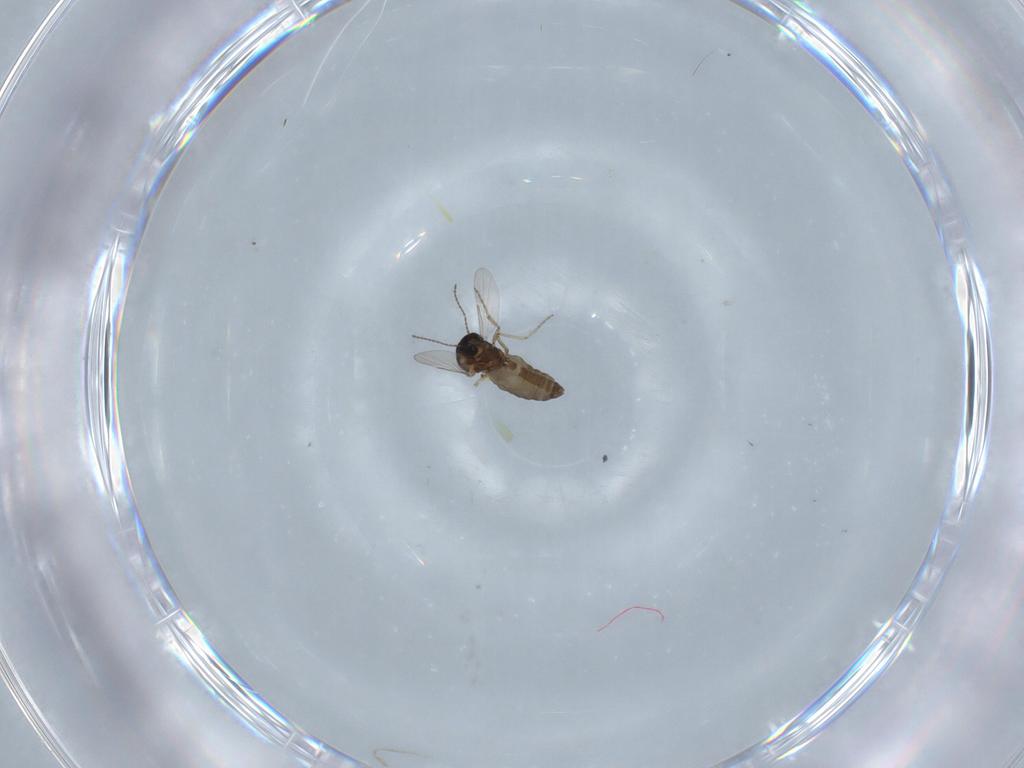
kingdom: Animalia
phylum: Arthropoda
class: Insecta
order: Diptera
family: Ceratopogonidae
